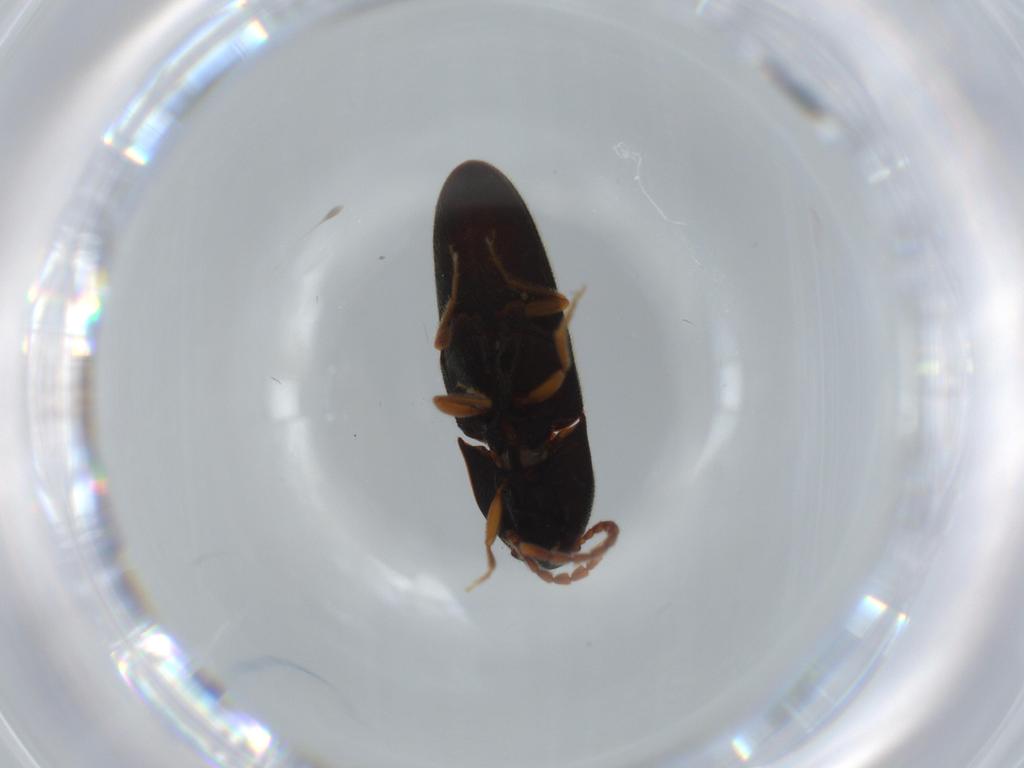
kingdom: Animalia
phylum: Arthropoda
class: Insecta
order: Coleoptera
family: Elateridae
